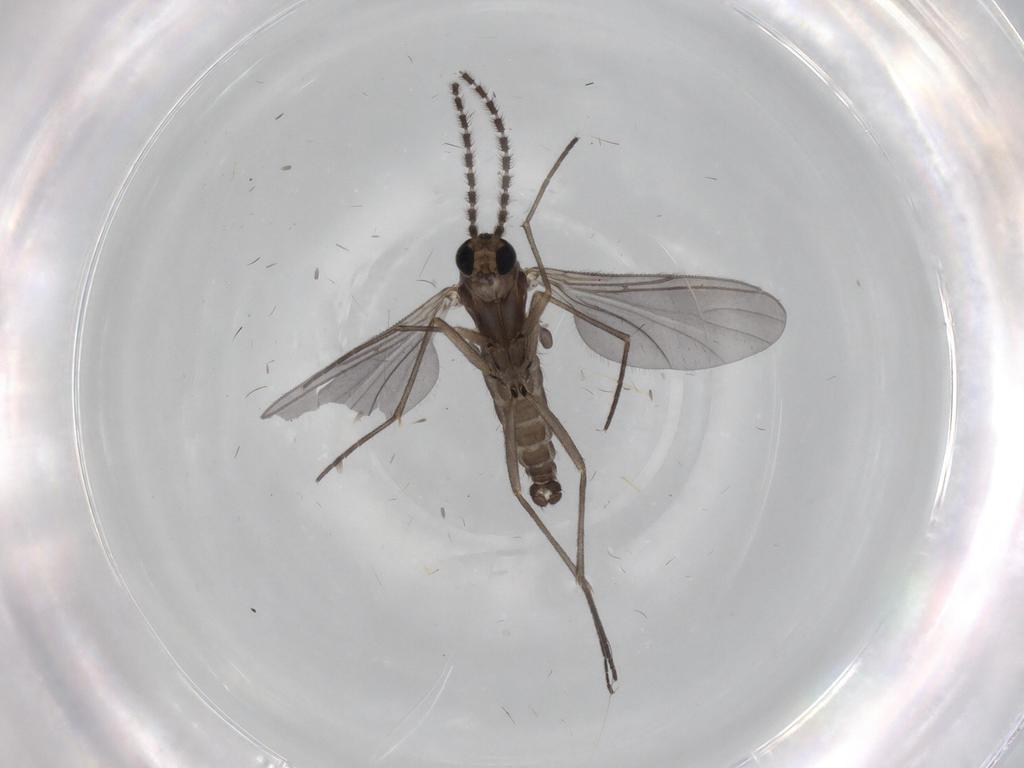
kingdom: Animalia
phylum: Arthropoda
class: Insecta
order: Diptera
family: Sciaridae
